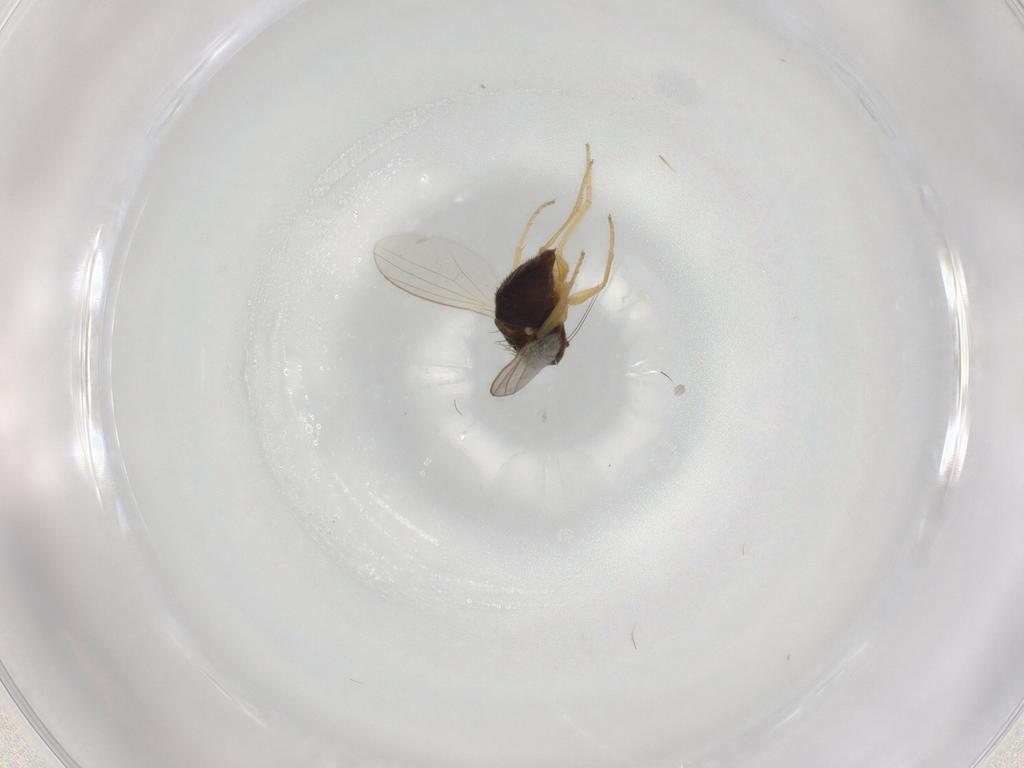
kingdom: Animalia
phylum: Arthropoda
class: Insecta
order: Diptera
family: Dolichopodidae
